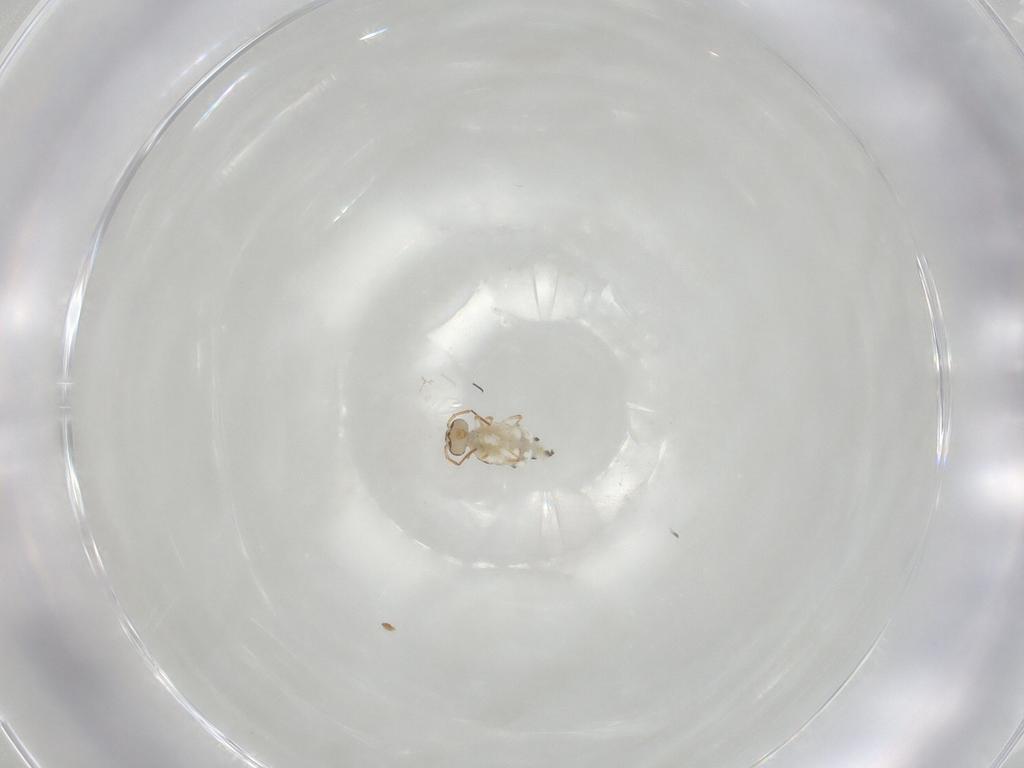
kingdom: Animalia
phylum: Arthropoda
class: Collembola
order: Symphypleona
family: Bourletiellidae
